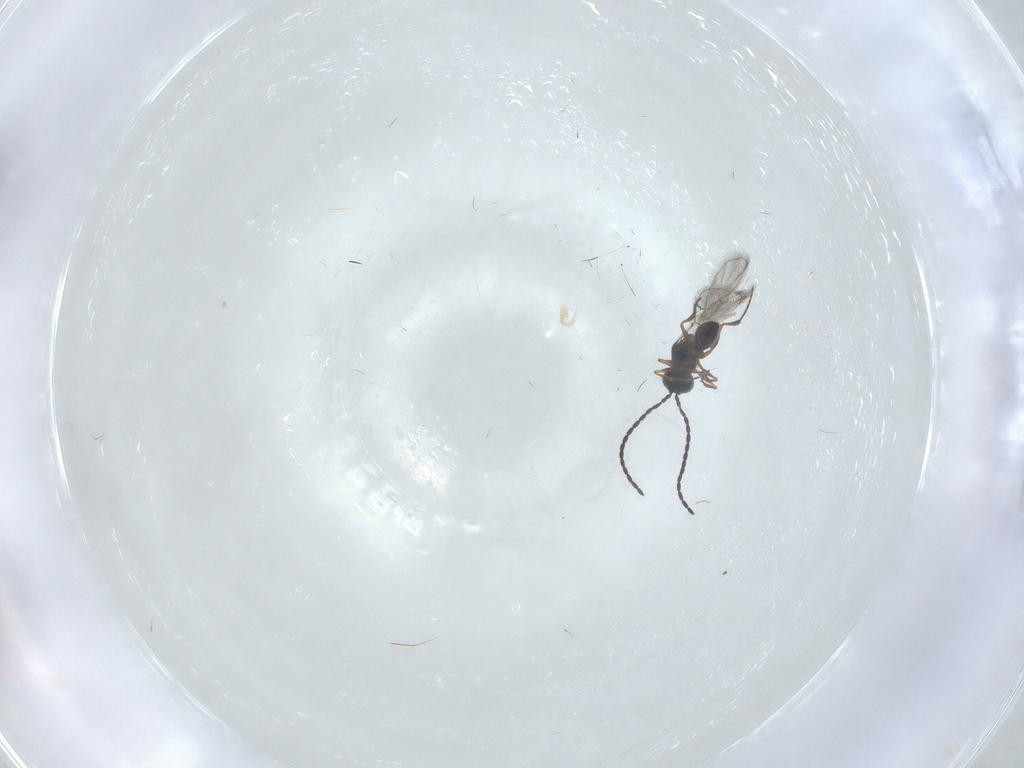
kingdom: Animalia
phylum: Arthropoda
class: Insecta
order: Hymenoptera
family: Figitidae
